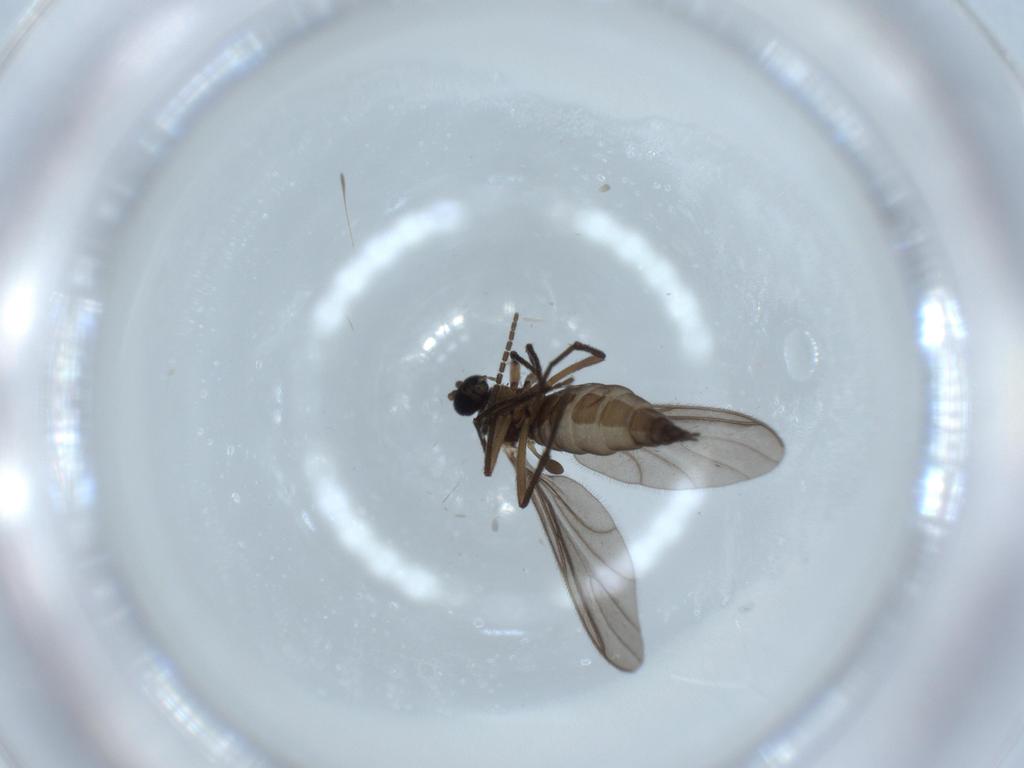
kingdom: Animalia
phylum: Arthropoda
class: Insecta
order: Diptera
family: Sciaridae
